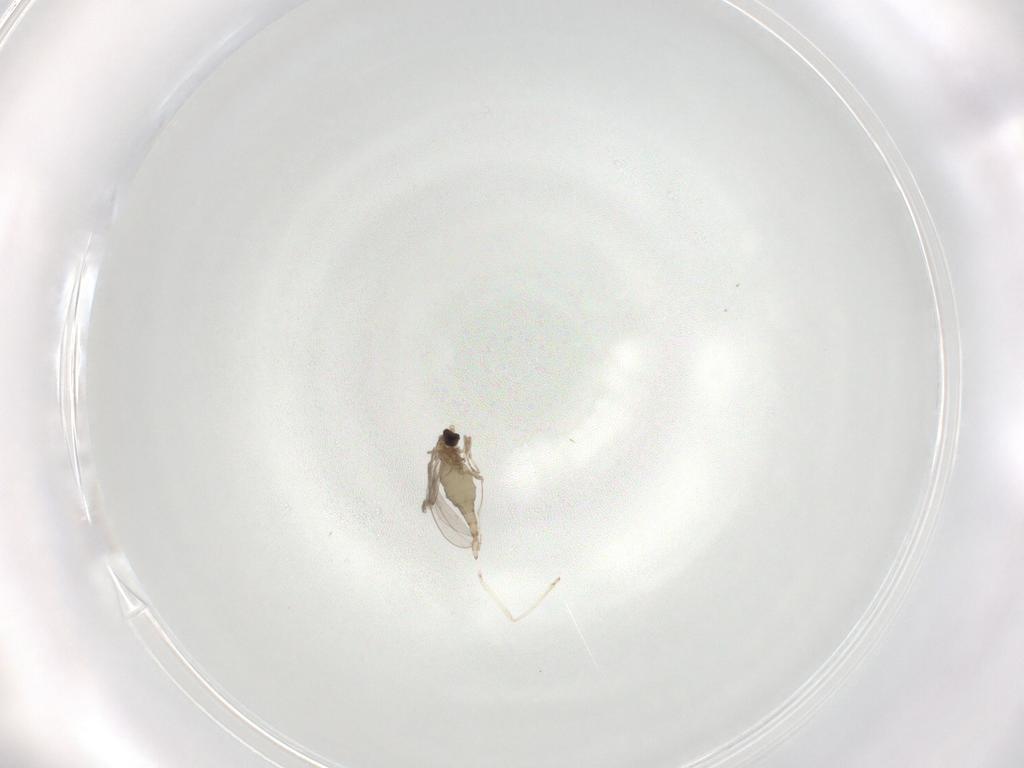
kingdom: Animalia
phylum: Arthropoda
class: Insecta
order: Diptera
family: Cecidomyiidae
